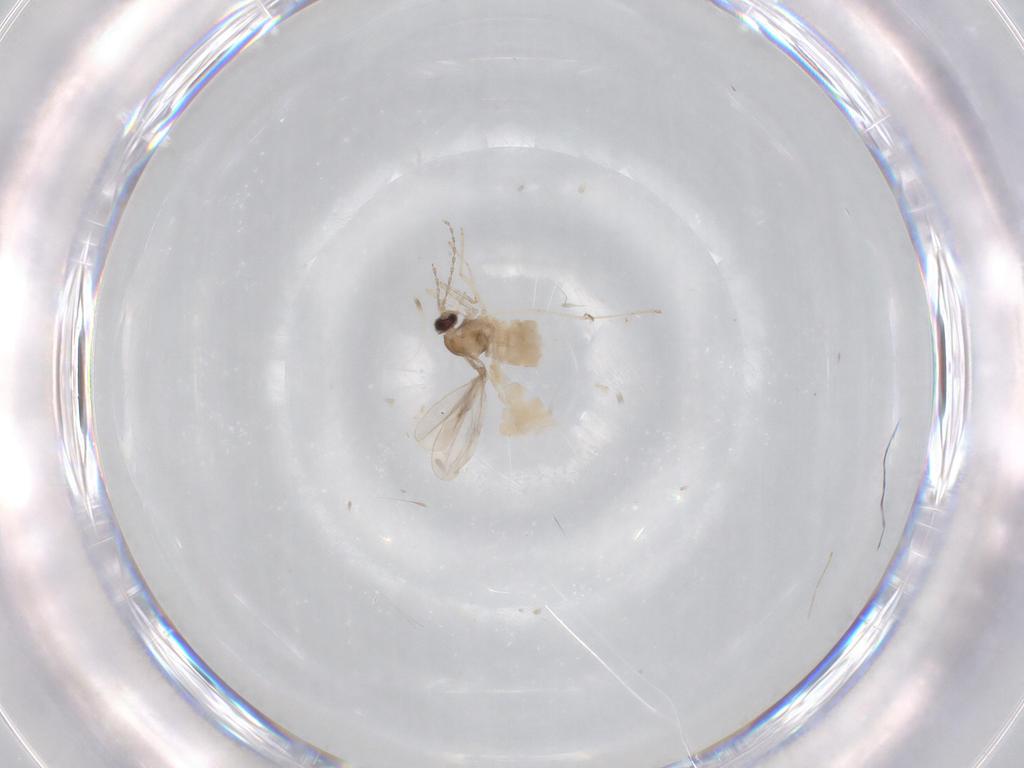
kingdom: Animalia
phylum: Arthropoda
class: Insecta
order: Diptera
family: Cecidomyiidae
